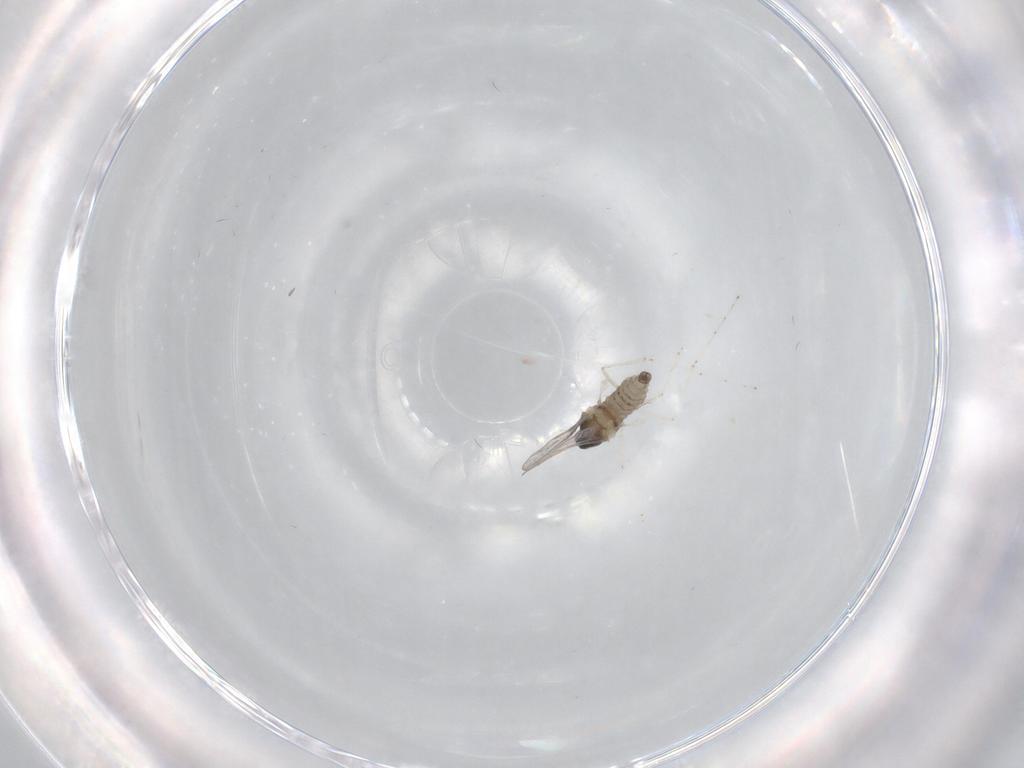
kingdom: Animalia
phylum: Arthropoda
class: Insecta
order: Diptera
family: Cecidomyiidae
